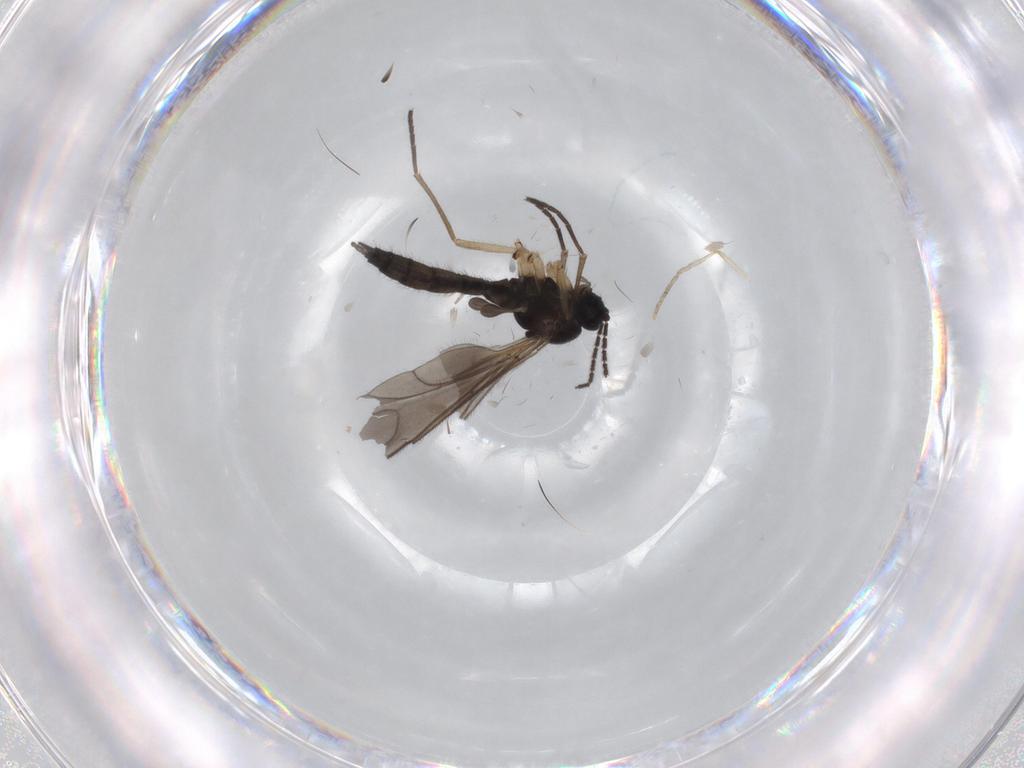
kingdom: Animalia
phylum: Arthropoda
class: Insecta
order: Diptera
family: Sciaridae
